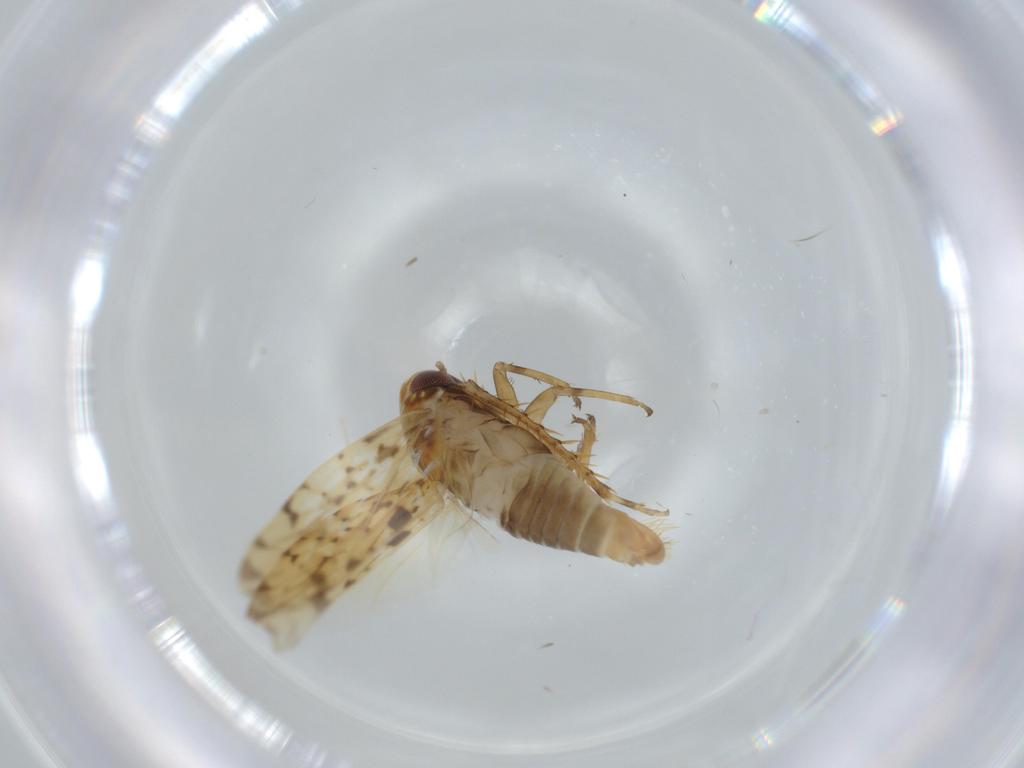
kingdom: Animalia
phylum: Arthropoda
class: Insecta
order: Hemiptera
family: Cicadellidae
